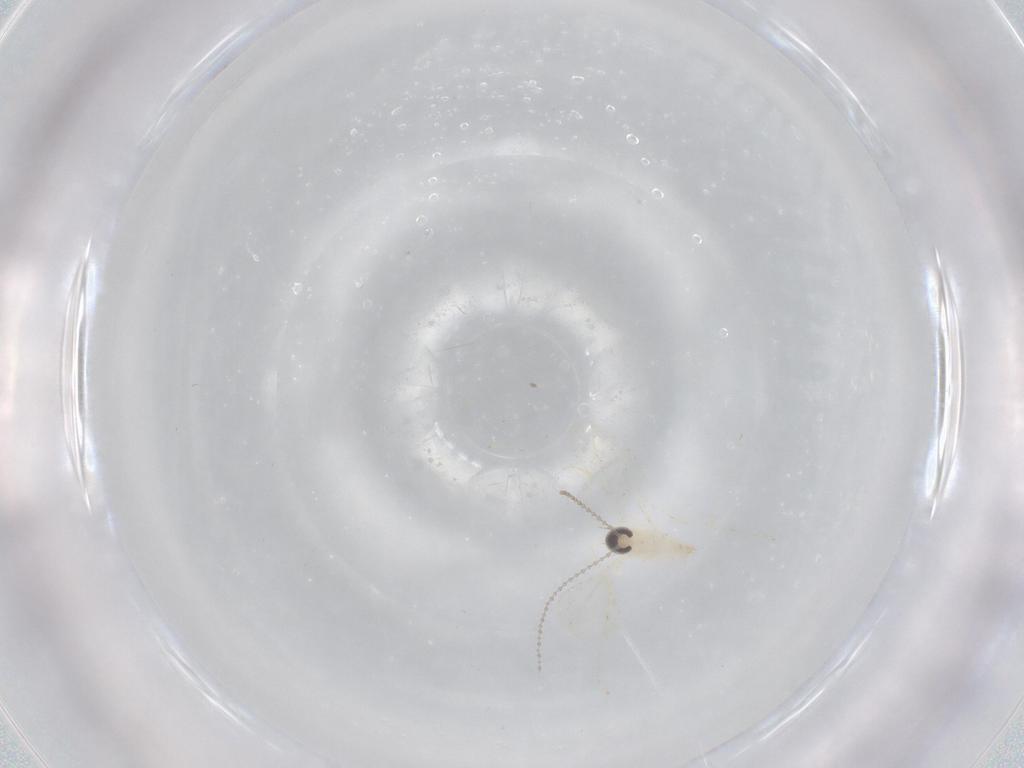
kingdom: Animalia
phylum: Arthropoda
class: Insecta
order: Diptera
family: Cecidomyiidae
